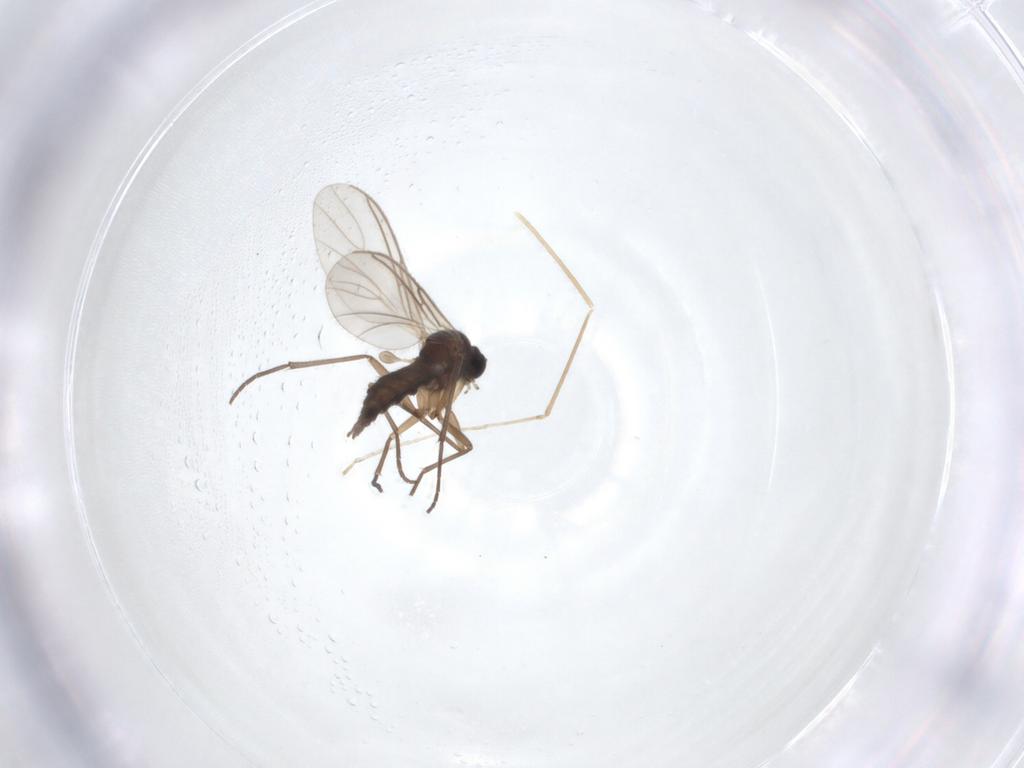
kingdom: Animalia
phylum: Arthropoda
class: Insecta
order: Diptera
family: Sciaridae
